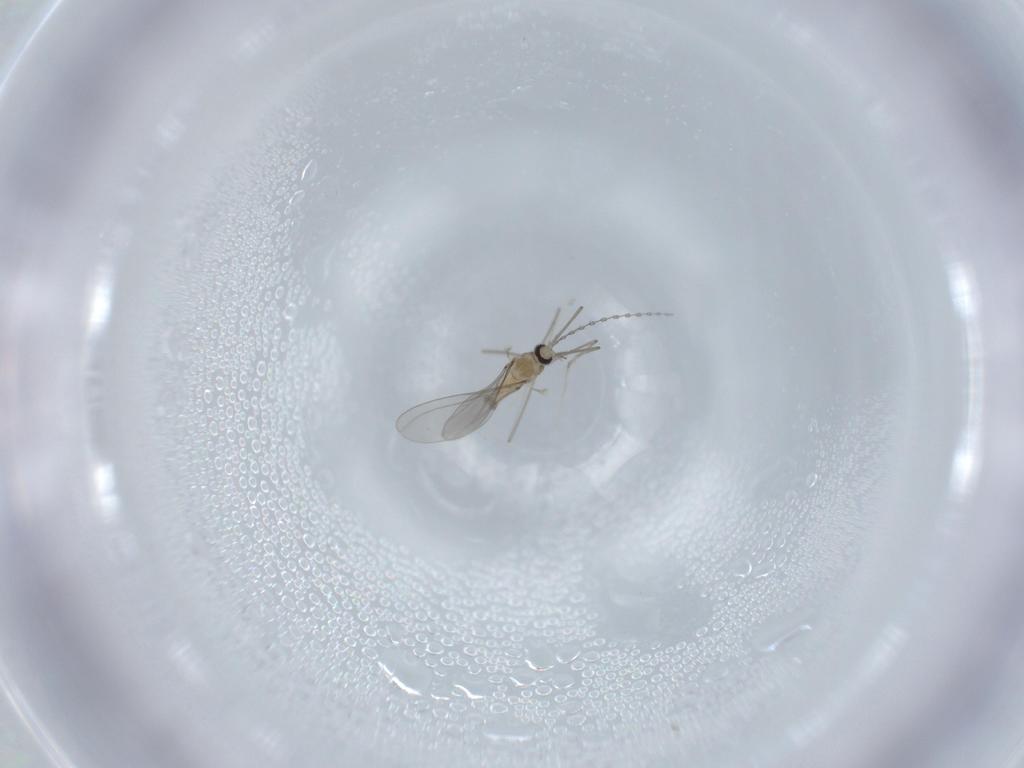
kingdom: Animalia
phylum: Arthropoda
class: Insecta
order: Diptera
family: Cecidomyiidae
